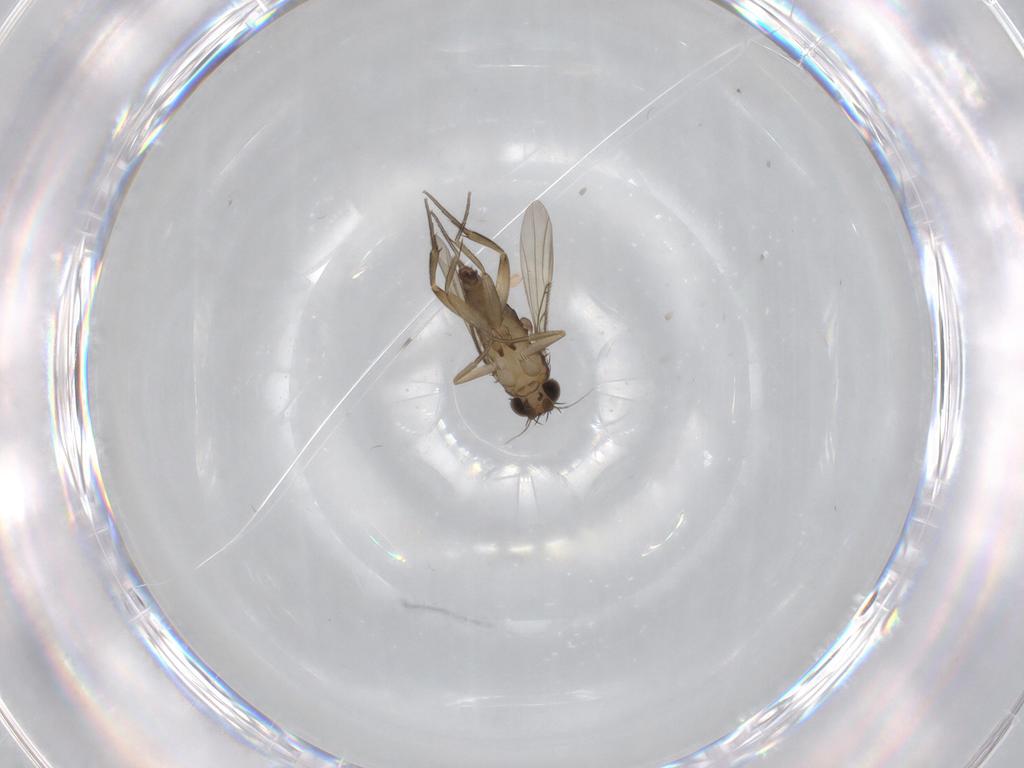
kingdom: Animalia
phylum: Arthropoda
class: Insecta
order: Diptera
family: Phoridae
